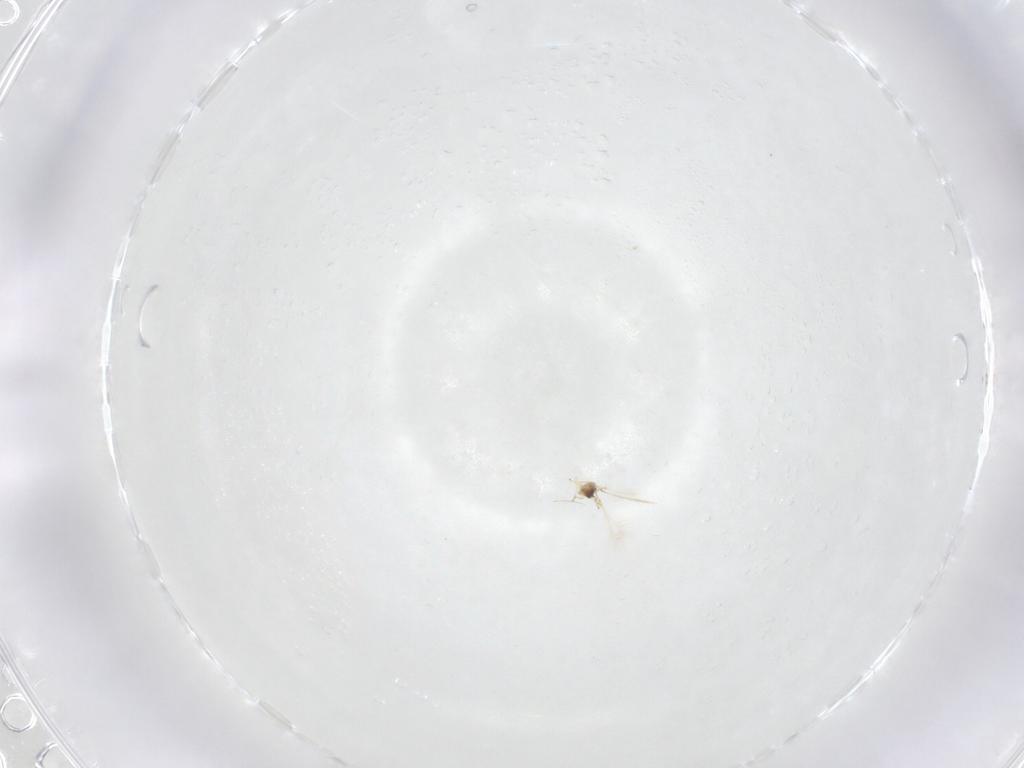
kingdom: Animalia
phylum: Arthropoda
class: Insecta
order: Hymenoptera
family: Mymaridae
